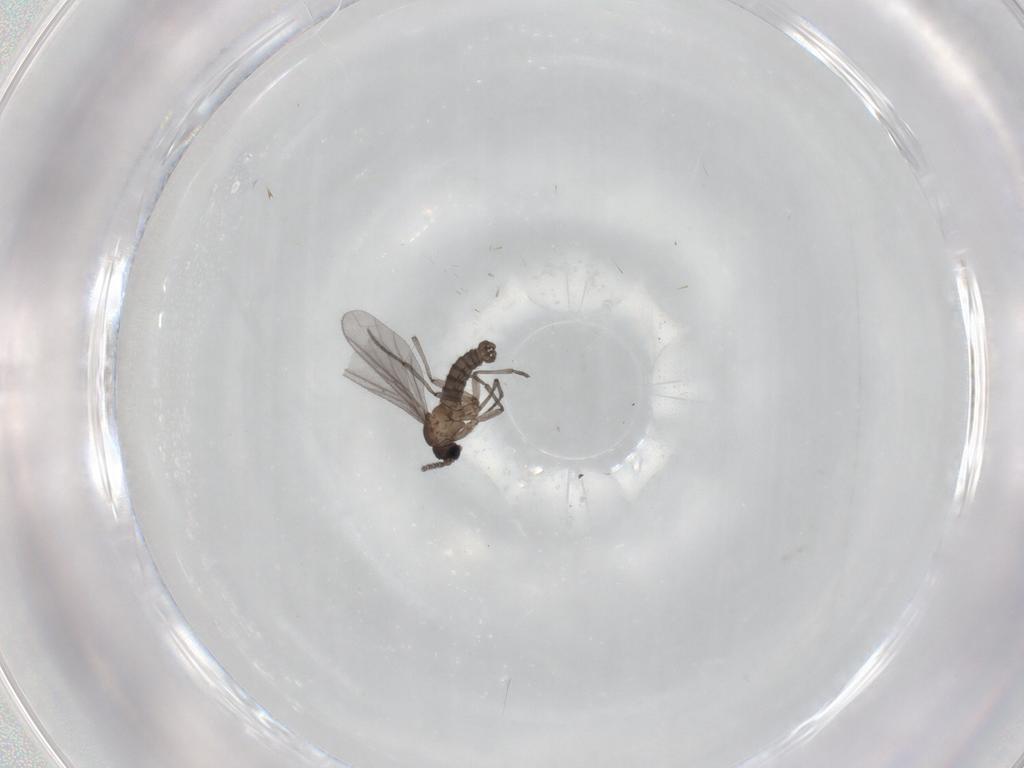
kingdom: Animalia
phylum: Arthropoda
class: Insecta
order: Diptera
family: Sciaridae
